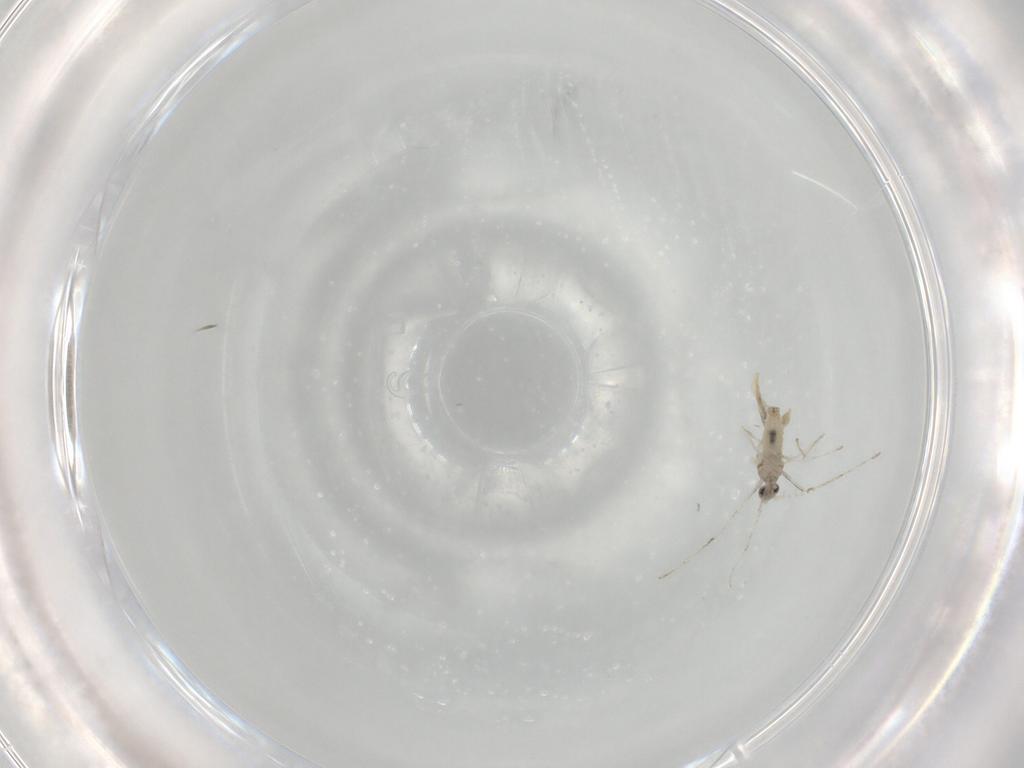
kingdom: Animalia
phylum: Arthropoda
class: Insecta
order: Diptera
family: Cecidomyiidae
